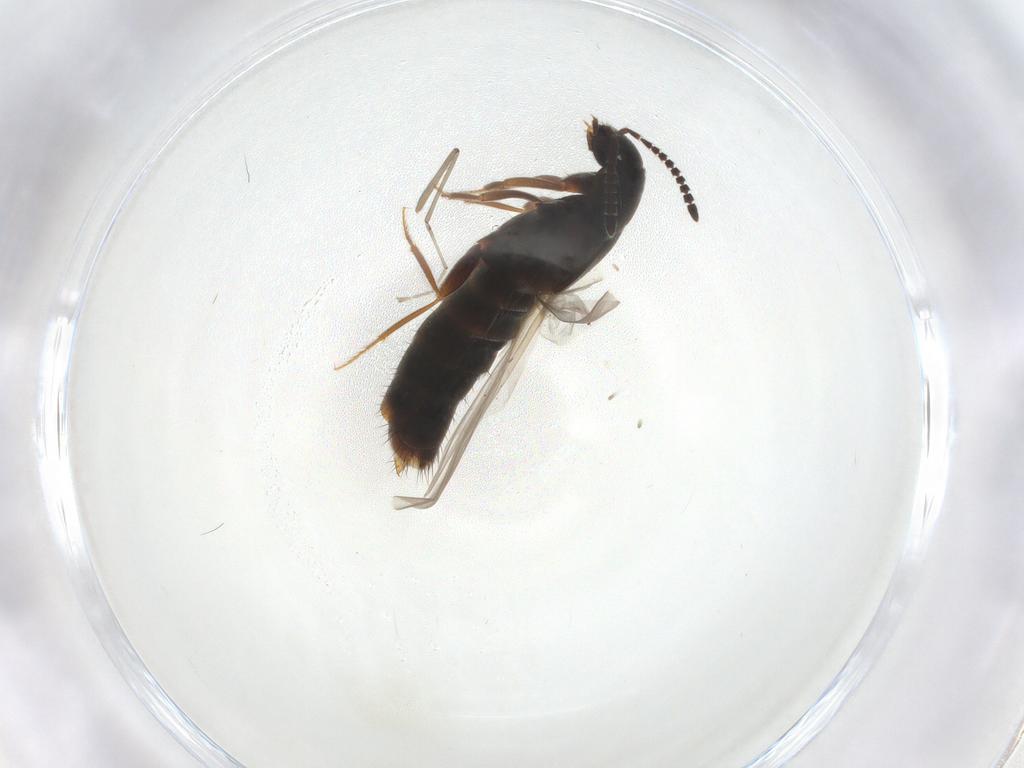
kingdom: Animalia
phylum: Arthropoda
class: Insecta
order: Coleoptera
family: Staphylinidae
